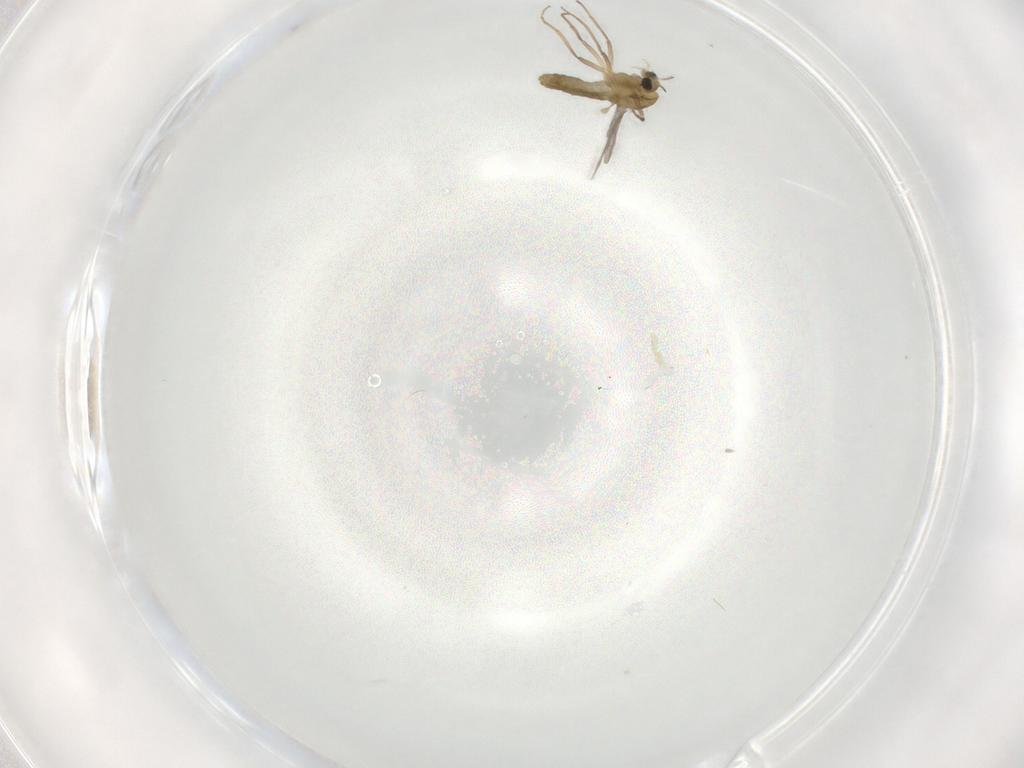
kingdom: Animalia
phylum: Arthropoda
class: Insecta
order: Diptera
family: Chironomidae
